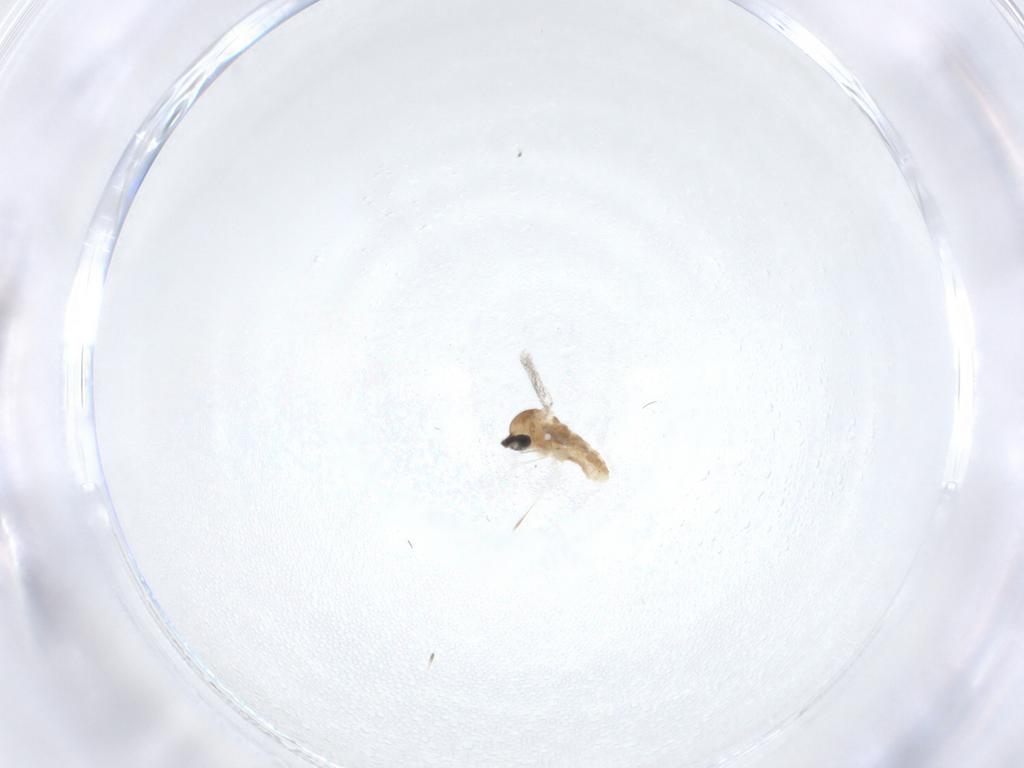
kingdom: Animalia
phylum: Arthropoda
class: Insecta
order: Diptera
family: Cecidomyiidae
